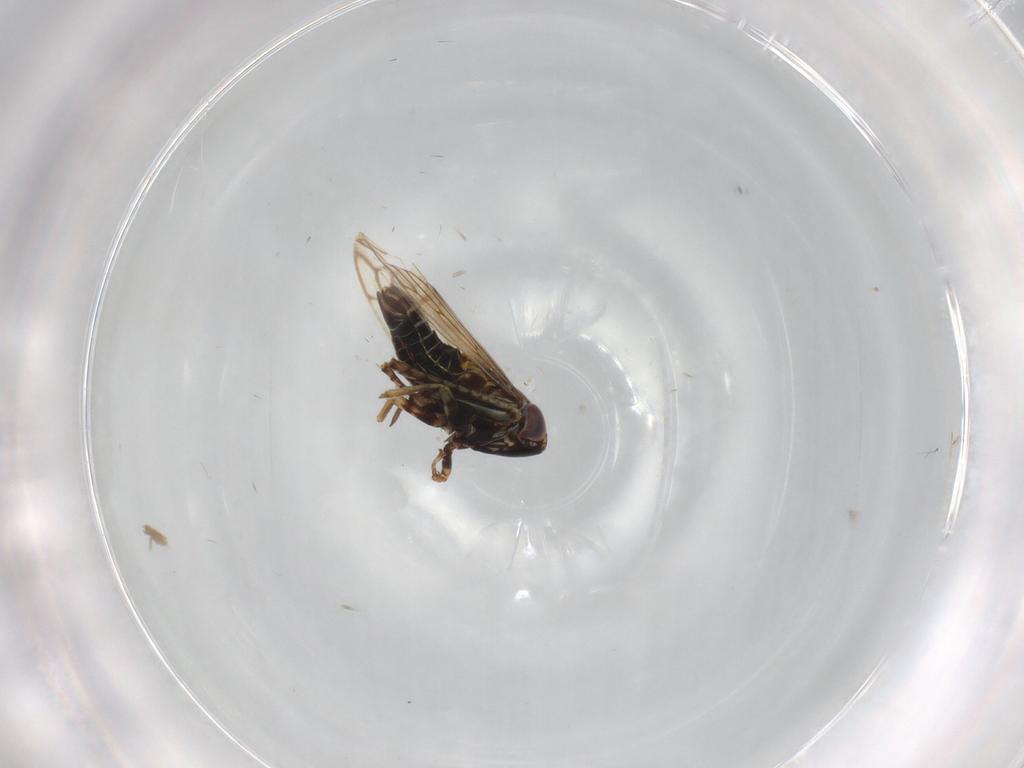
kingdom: Animalia
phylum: Arthropoda
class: Insecta
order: Hemiptera
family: Cicadellidae
